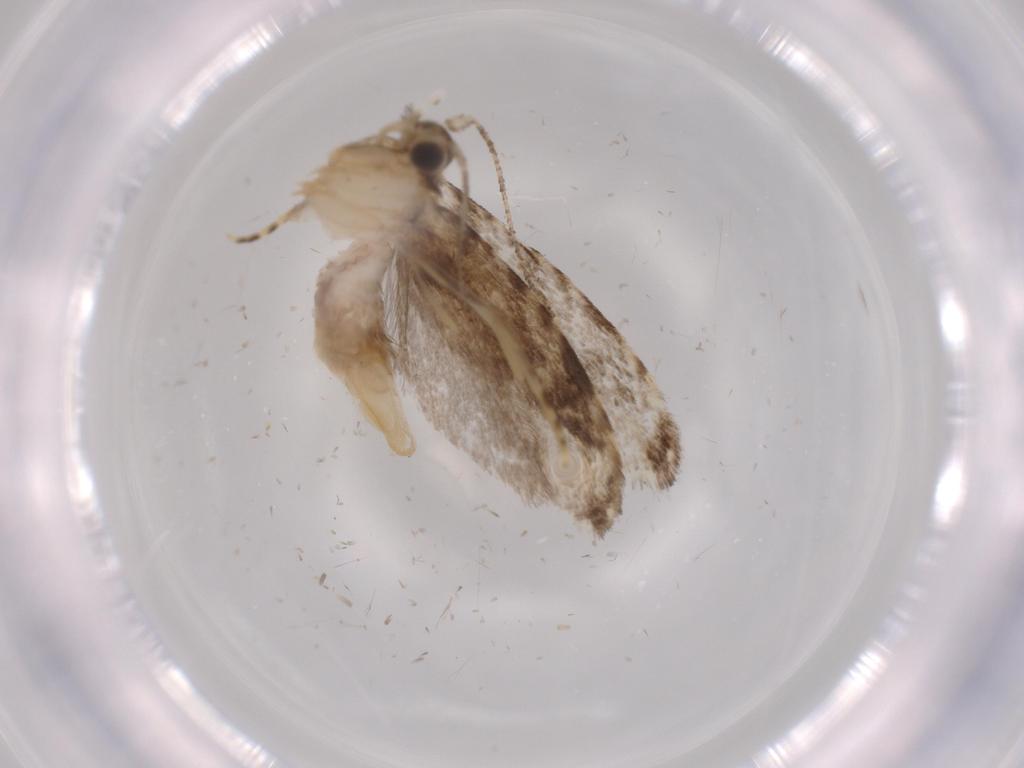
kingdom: Animalia
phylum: Arthropoda
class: Insecta
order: Lepidoptera
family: Tineidae
